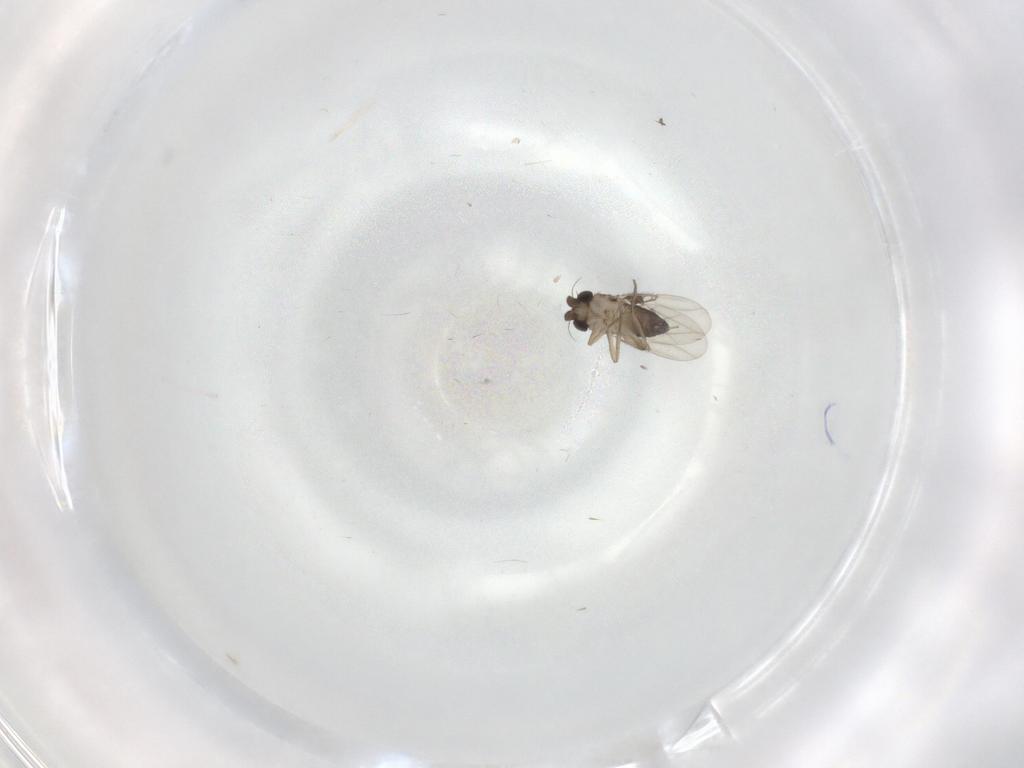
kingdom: Animalia
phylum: Arthropoda
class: Insecta
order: Diptera
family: Phoridae
